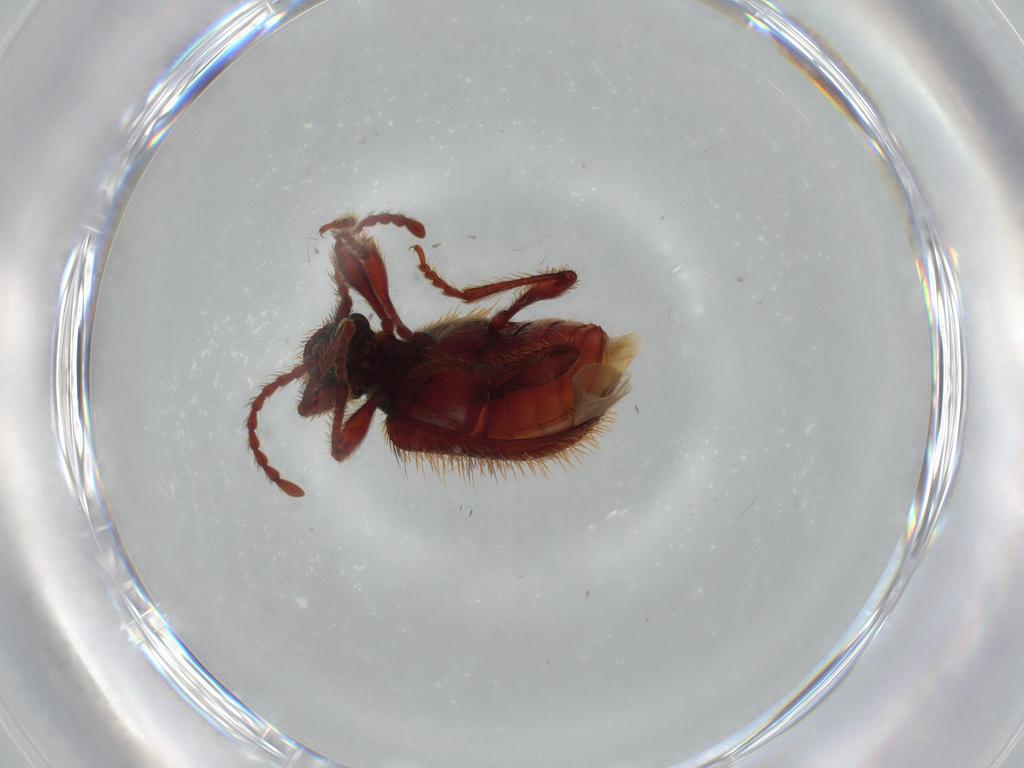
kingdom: Animalia
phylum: Arthropoda
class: Insecta
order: Coleoptera
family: Ptinidae
